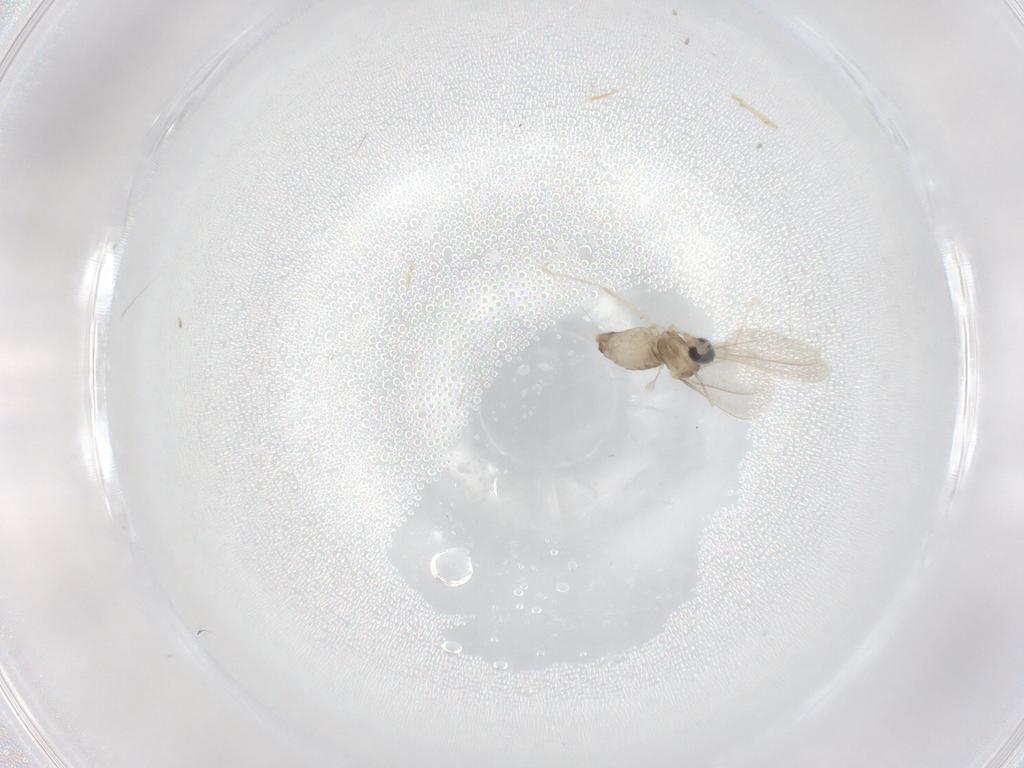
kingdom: Animalia
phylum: Arthropoda
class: Insecta
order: Diptera
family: Cecidomyiidae
